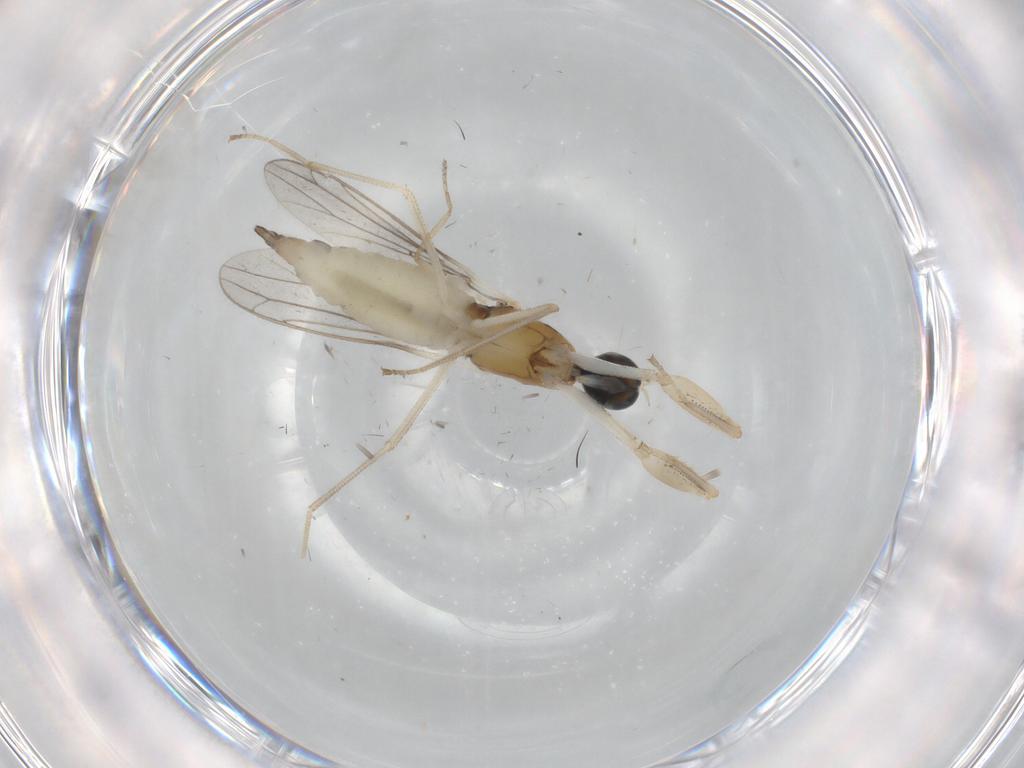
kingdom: Animalia
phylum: Arthropoda
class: Insecta
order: Diptera
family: Empididae
